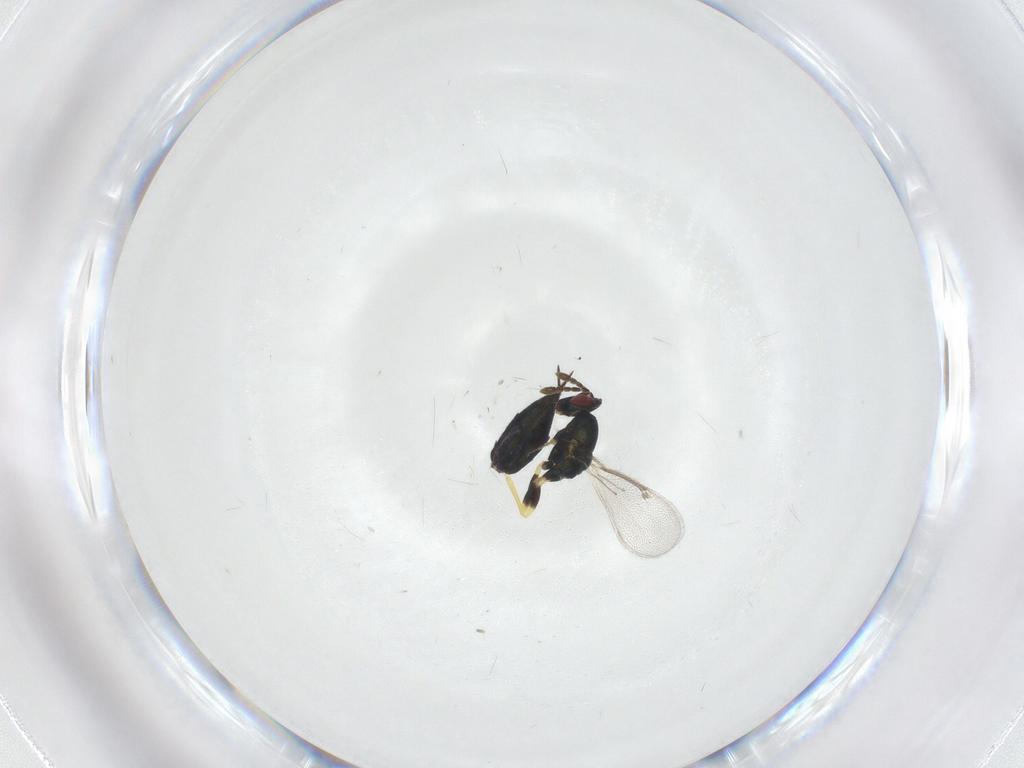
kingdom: Animalia
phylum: Arthropoda
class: Insecta
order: Hymenoptera
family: Eulophidae
